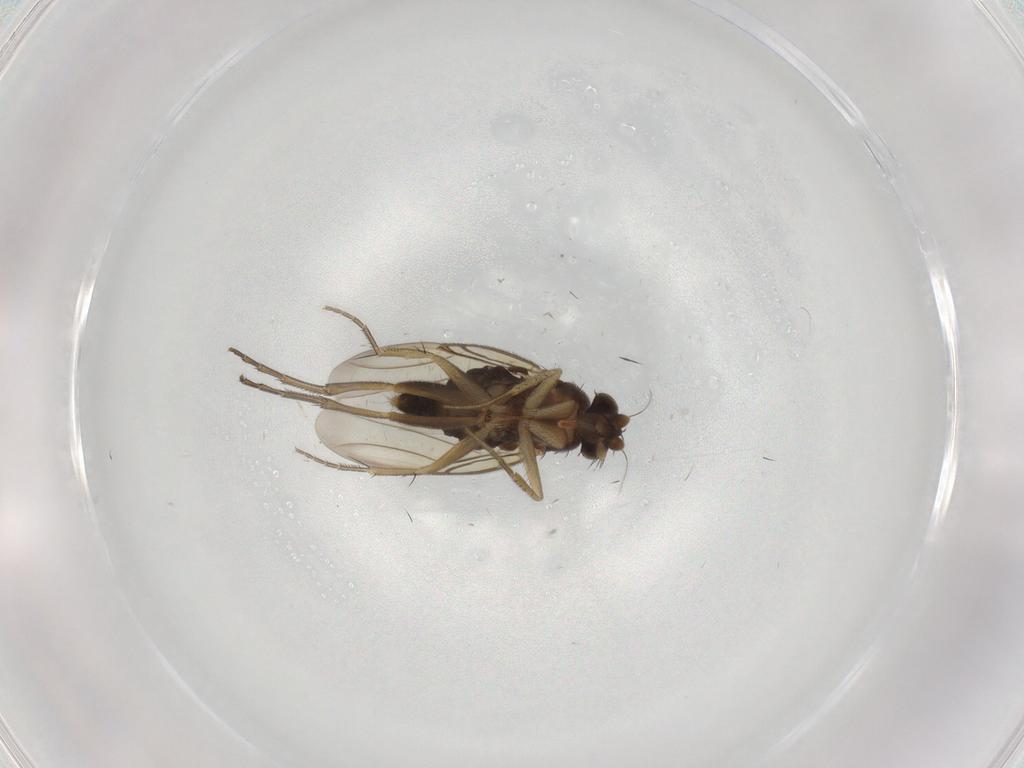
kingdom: Animalia
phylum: Arthropoda
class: Insecta
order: Diptera
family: Phoridae
